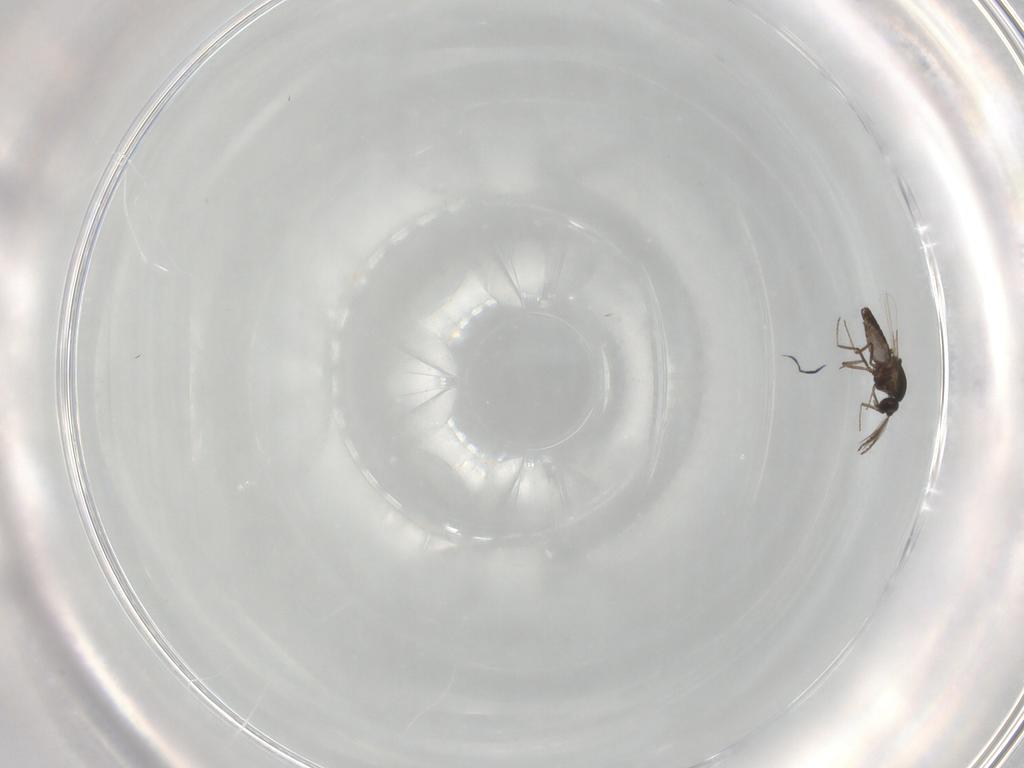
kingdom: Animalia
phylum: Arthropoda
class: Insecta
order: Diptera
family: Ceratopogonidae
